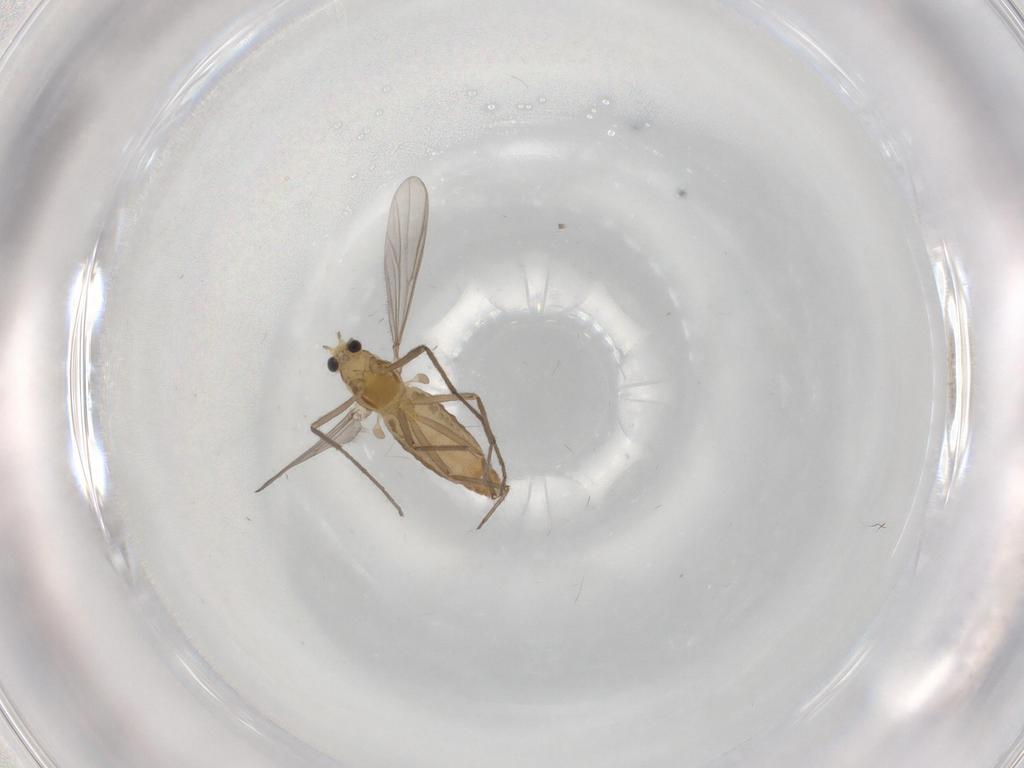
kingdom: Animalia
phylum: Arthropoda
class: Insecta
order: Diptera
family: Chironomidae
